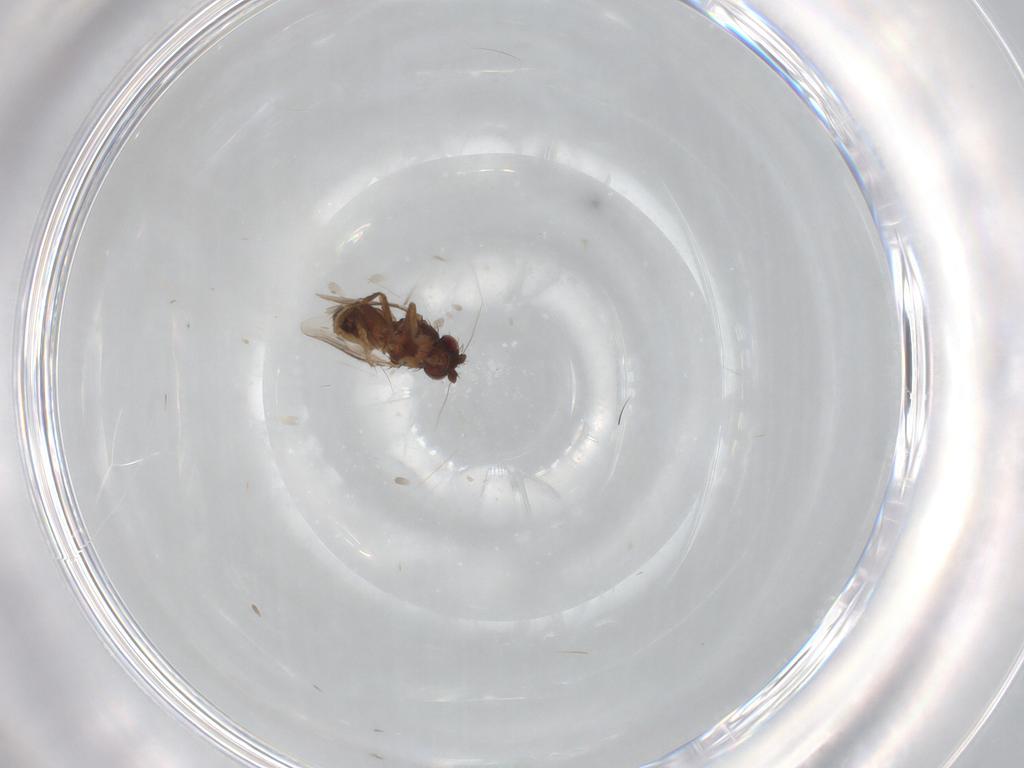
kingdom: Animalia
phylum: Arthropoda
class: Insecta
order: Diptera
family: Sphaeroceridae
